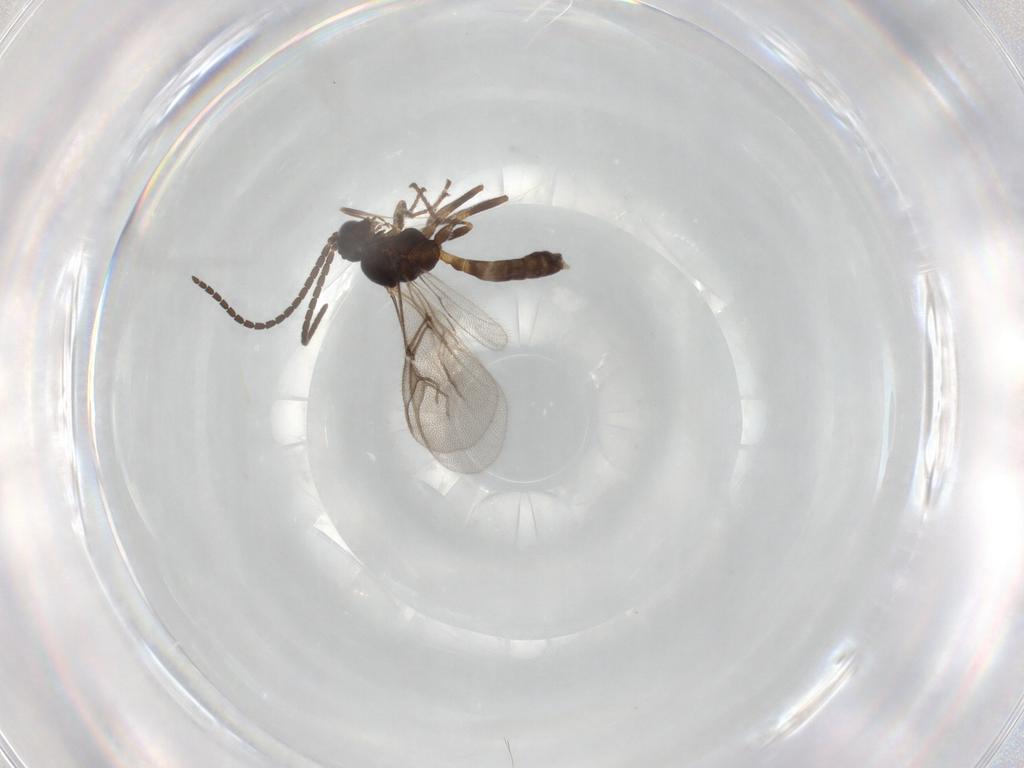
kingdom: Animalia
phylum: Arthropoda
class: Insecta
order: Hymenoptera
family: Braconidae
